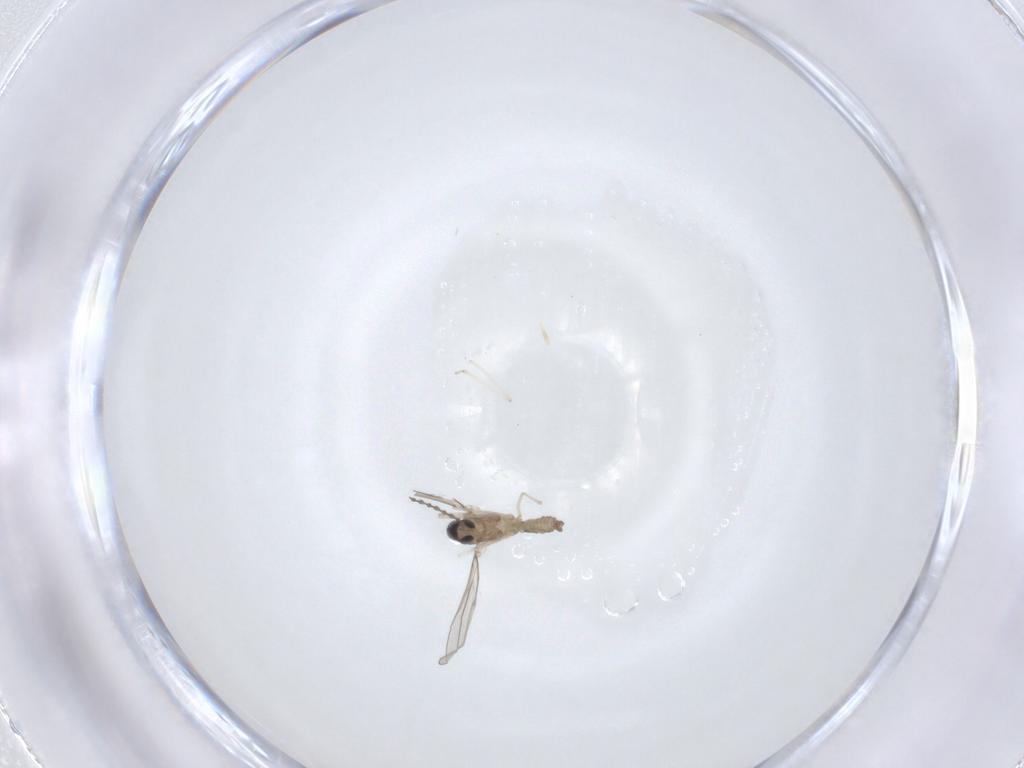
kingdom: Animalia
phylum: Arthropoda
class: Insecta
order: Diptera
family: Cecidomyiidae
